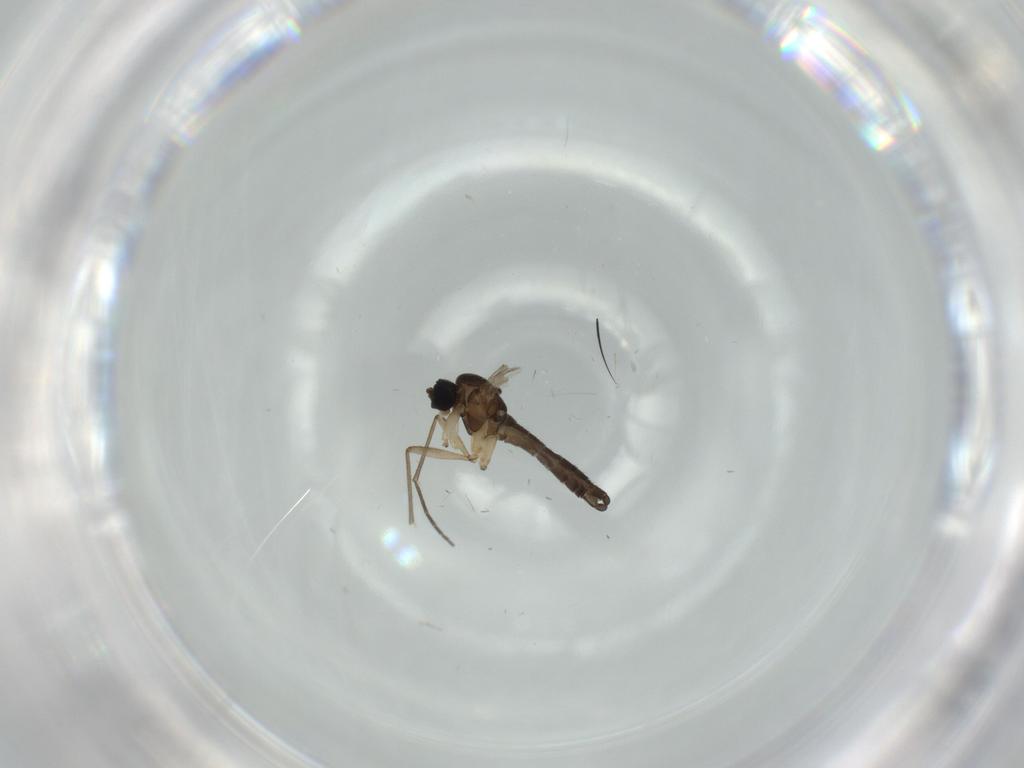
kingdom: Animalia
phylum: Arthropoda
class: Insecta
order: Diptera
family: Sciaridae
